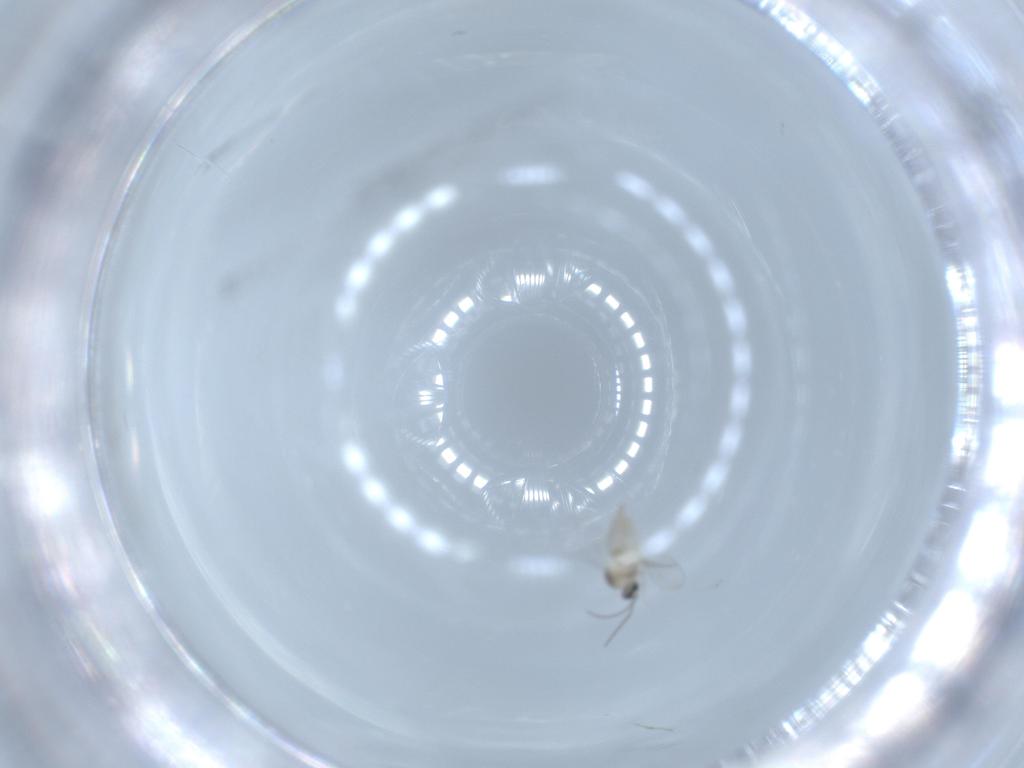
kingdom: Animalia
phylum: Arthropoda
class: Insecta
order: Diptera
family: Cecidomyiidae
